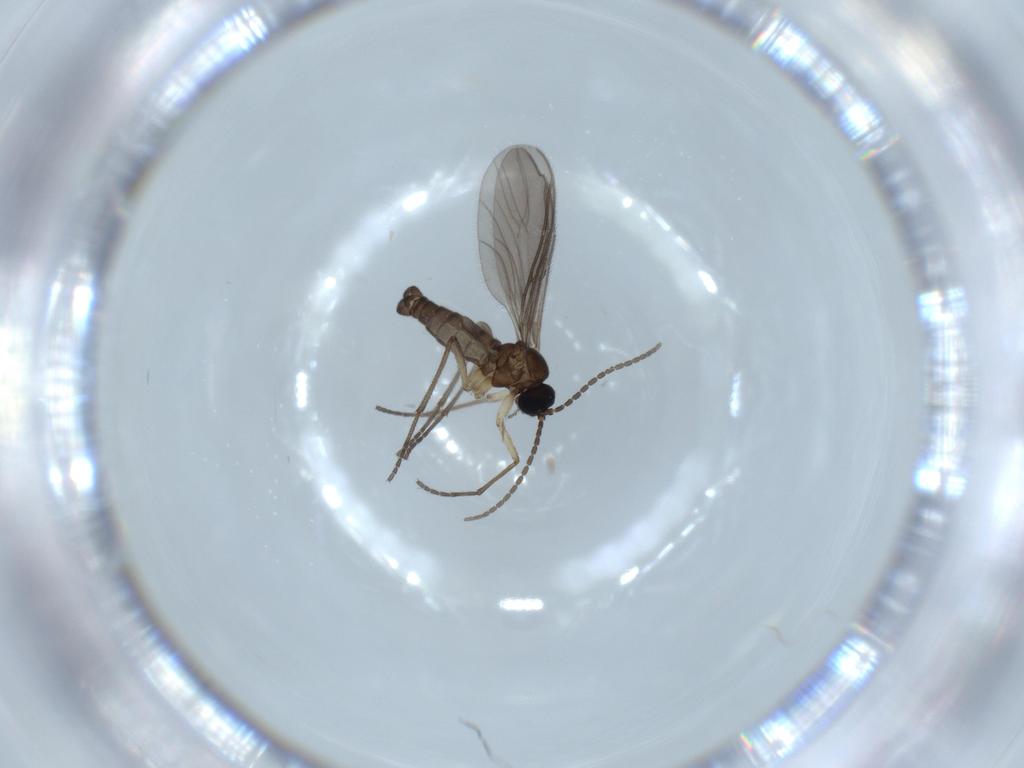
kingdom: Animalia
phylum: Arthropoda
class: Insecta
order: Diptera
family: Sciaridae
